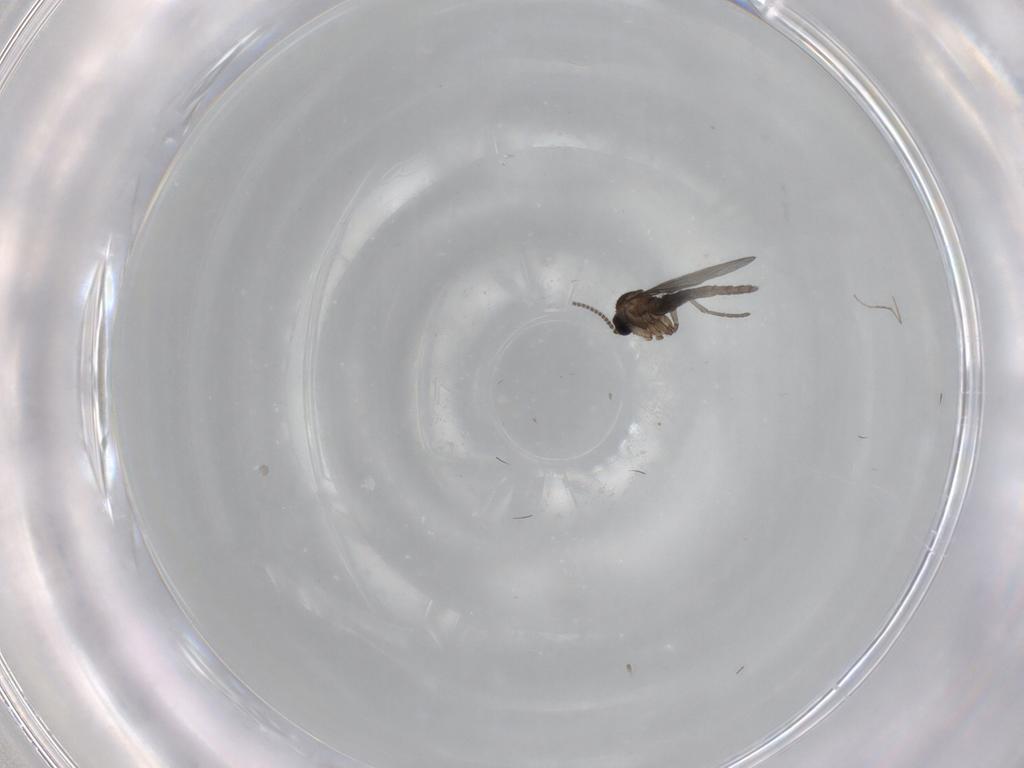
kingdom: Animalia
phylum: Arthropoda
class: Insecta
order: Diptera
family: Sciaridae
